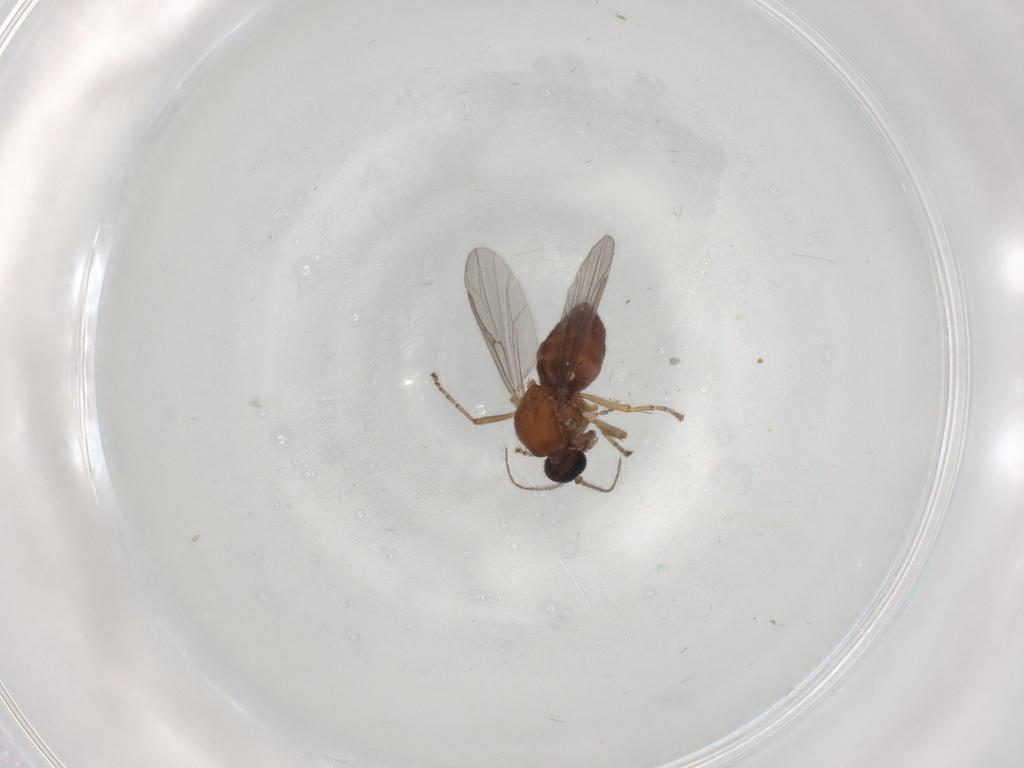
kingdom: Animalia
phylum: Arthropoda
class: Insecta
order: Diptera
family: Ceratopogonidae
